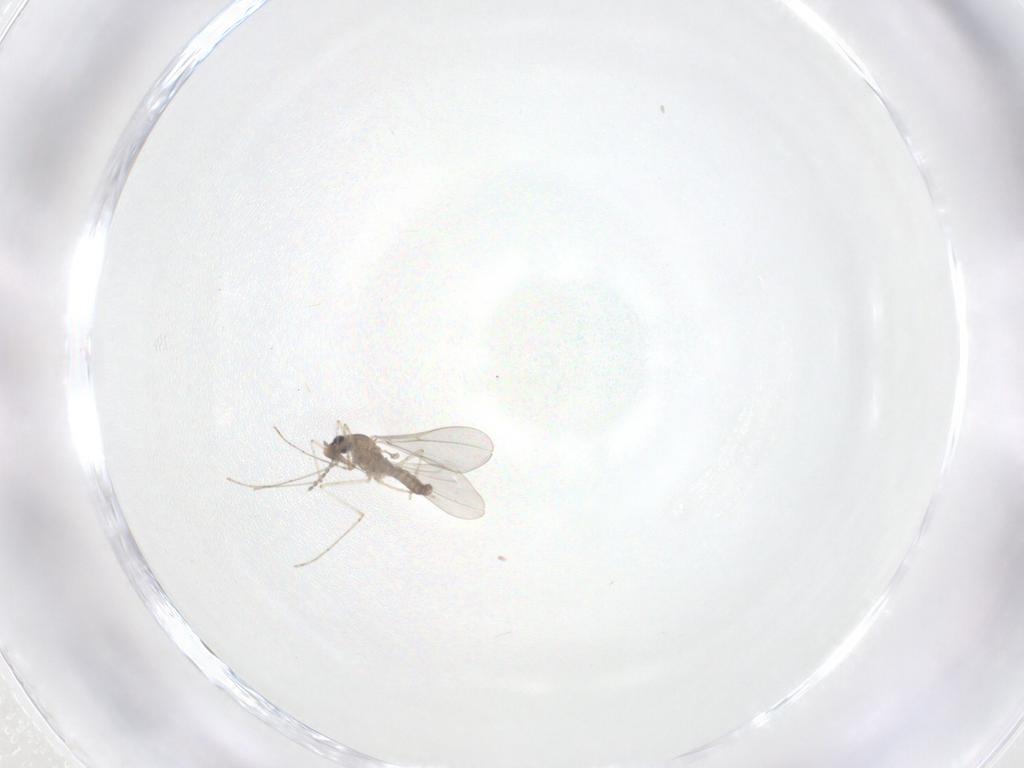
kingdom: Animalia
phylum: Arthropoda
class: Insecta
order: Diptera
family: Cecidomyiidae
